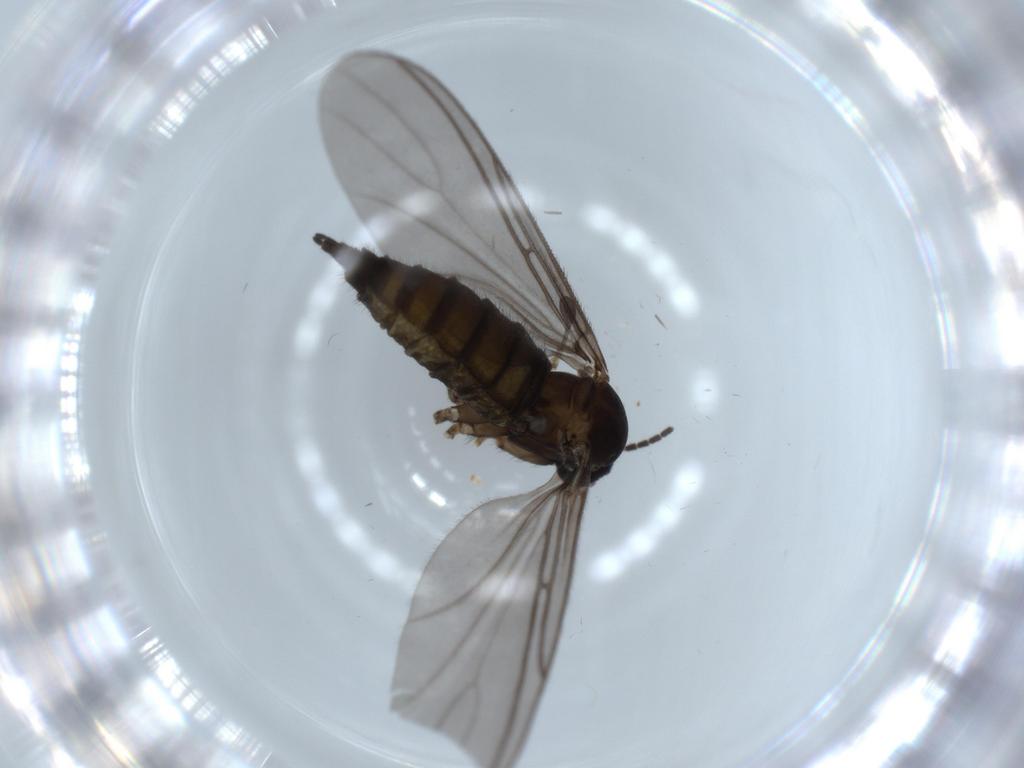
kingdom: Animalia
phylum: Arthropoda
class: Insecta
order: Diptera
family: Sciaridae
